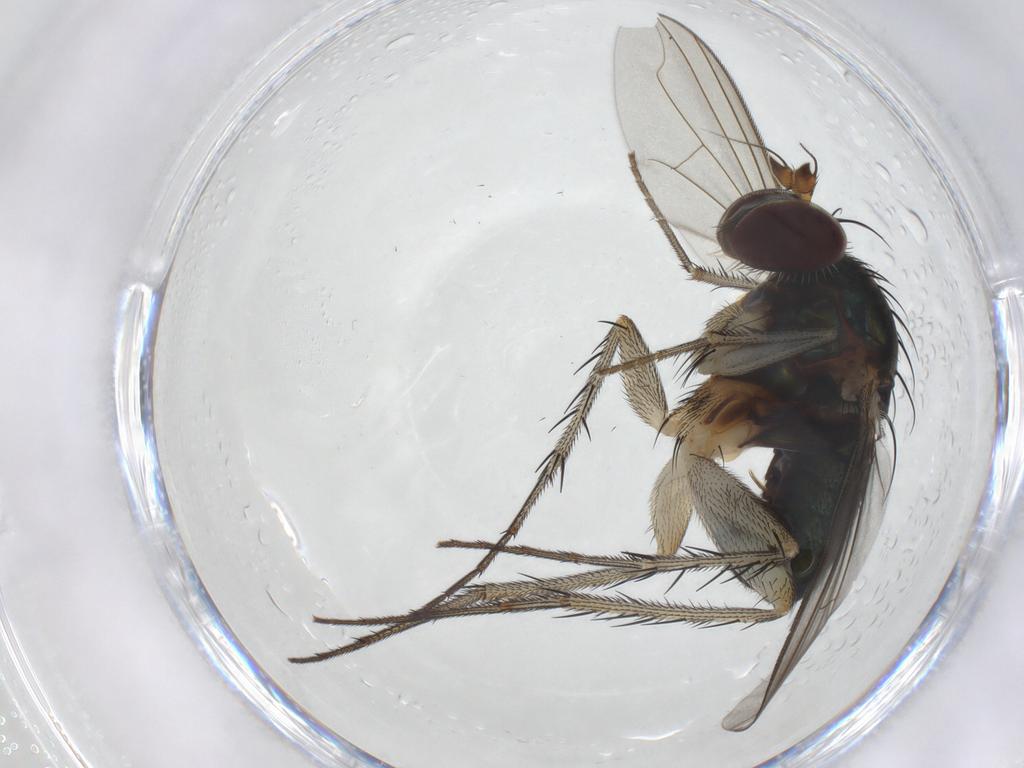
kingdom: Animalia
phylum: Arthropoda
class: Insecta
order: Diptera
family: Dolichopodidae
